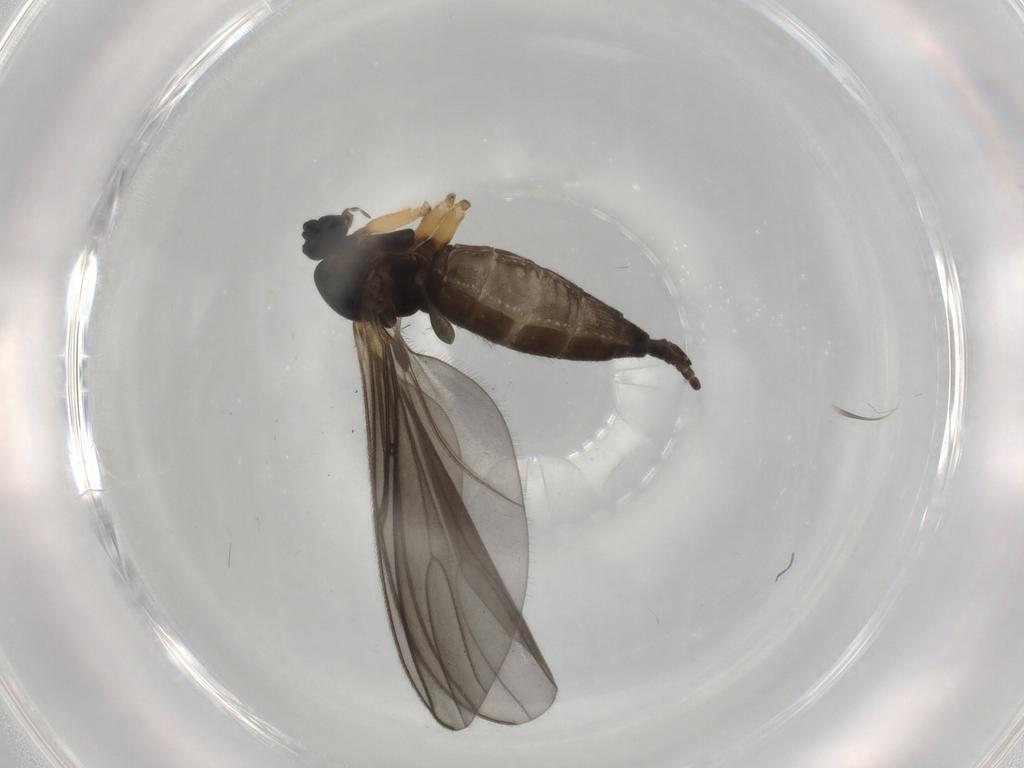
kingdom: Animalia
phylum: Arthropoda
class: Insecta
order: Diptera
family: Sciaridae
